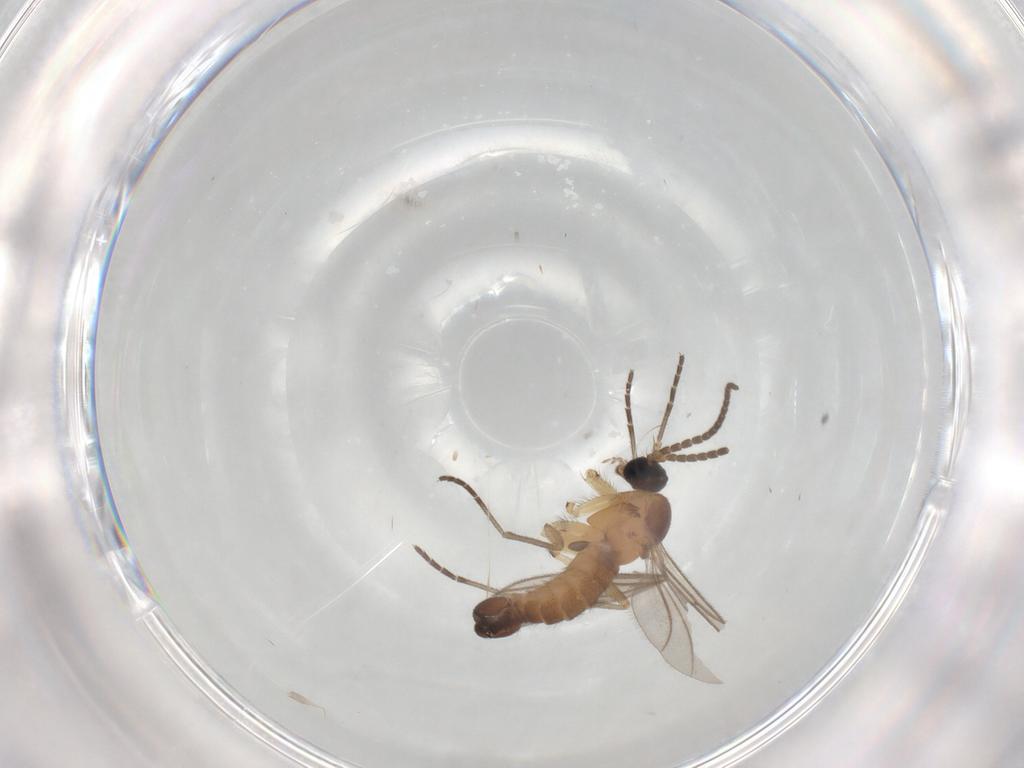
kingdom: Animalia
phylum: Arthropoda
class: Insecta
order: Diptera
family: Sciaridae
